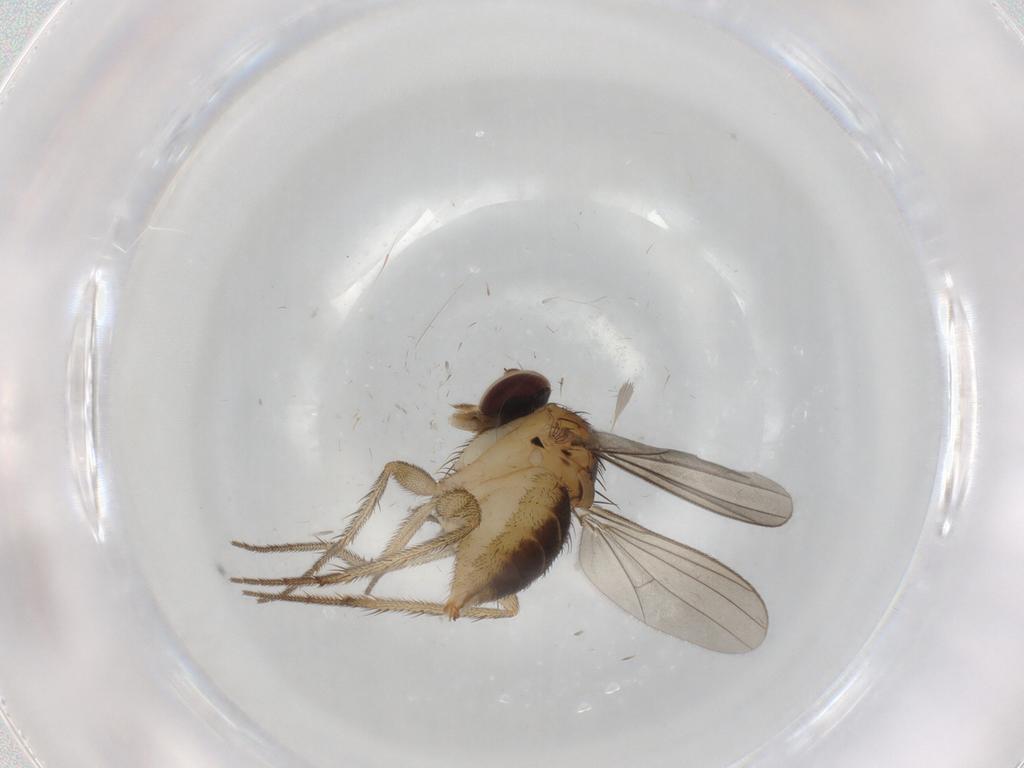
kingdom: Animalia
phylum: Arthropoda
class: Insecta
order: Diptera
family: Dolichopodidae
